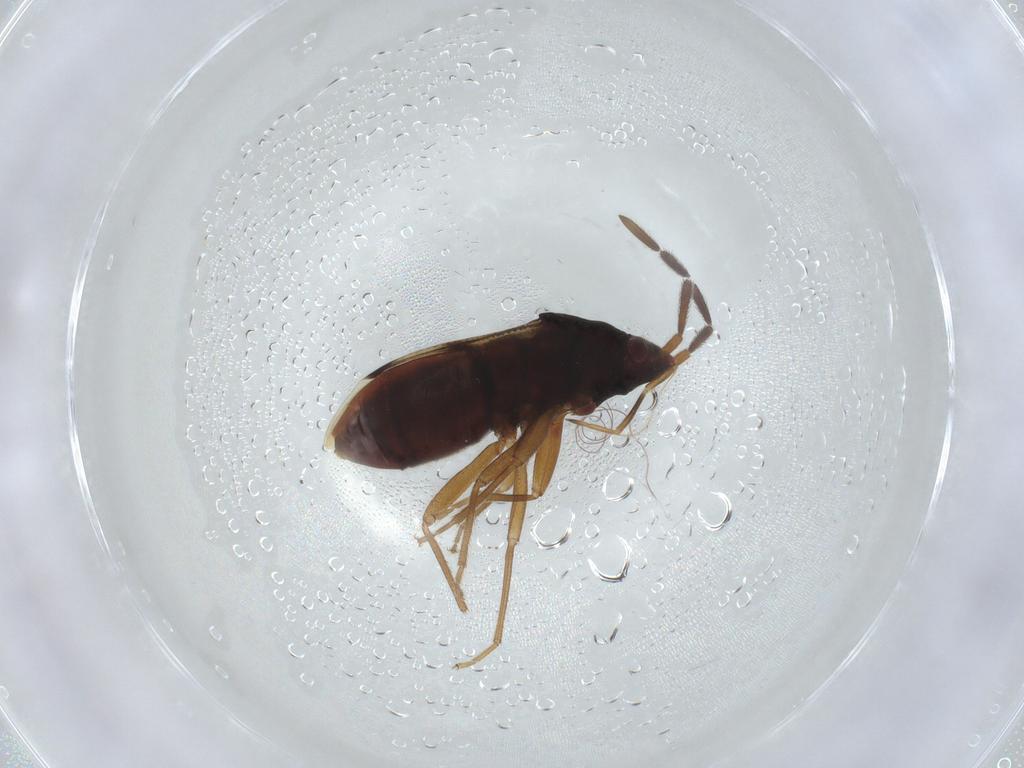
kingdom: Animalia
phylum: Arthropoda
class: Insecta
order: Hemiptera
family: Rhyparochromidae
